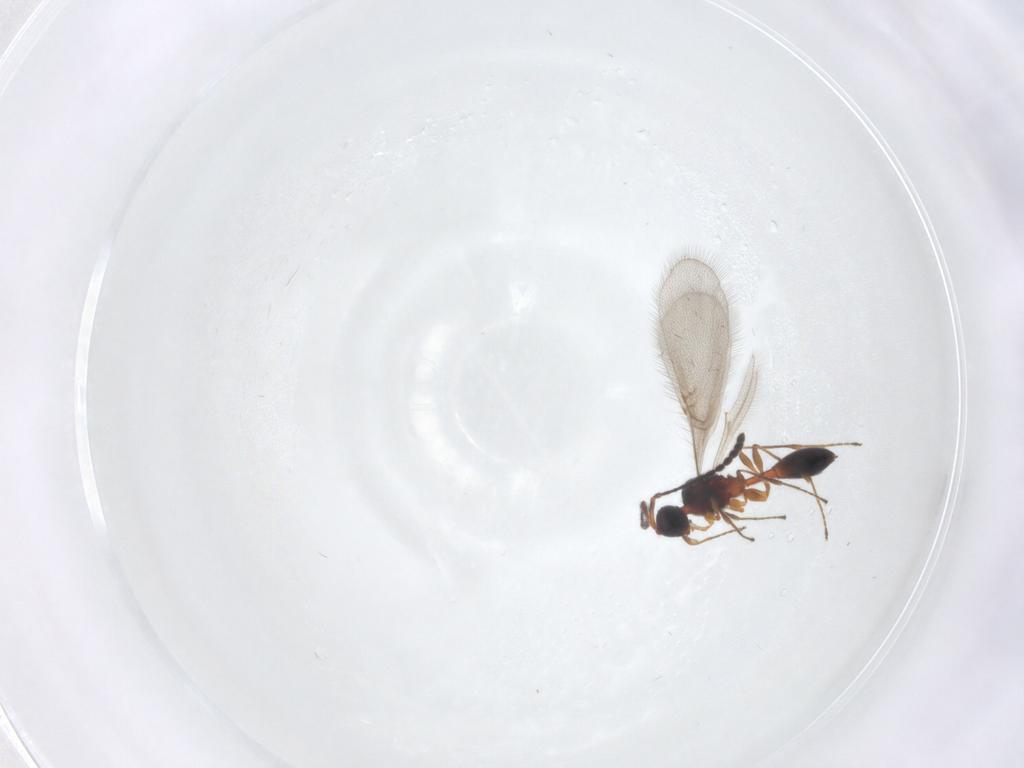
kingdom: Animalia
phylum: Arthropoda
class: Insecta
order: Hymenoptera
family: Diapriidae
